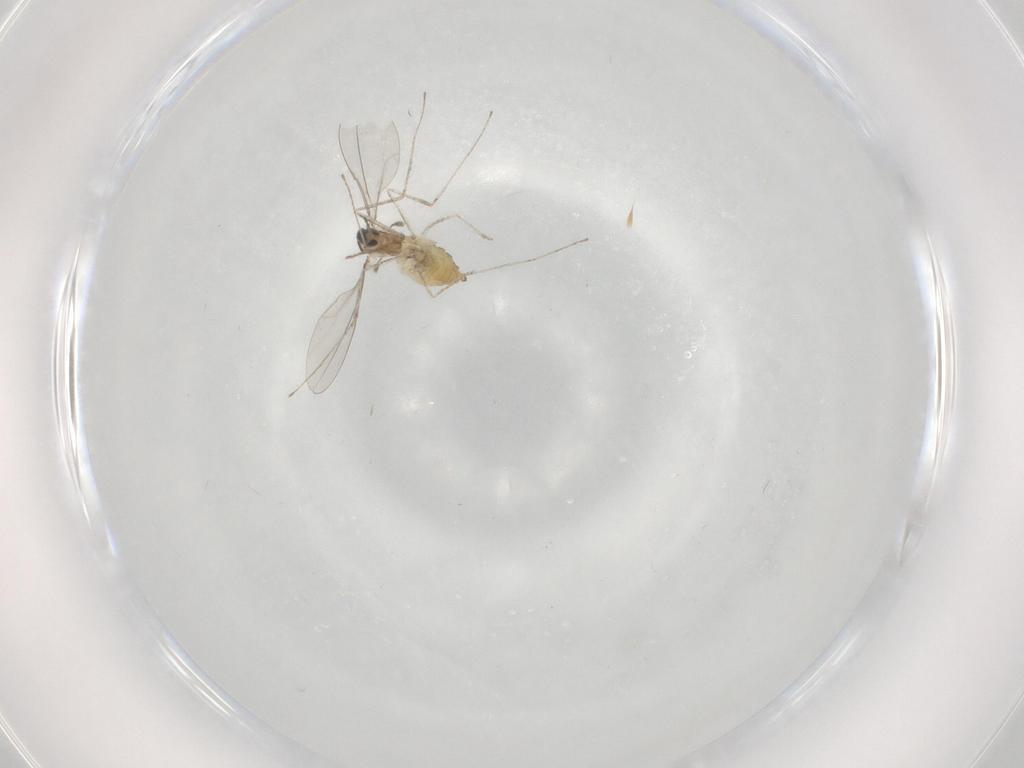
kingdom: Animalia
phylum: Arthropoda
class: Insecta
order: Diptera
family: Cecidomyiidae
